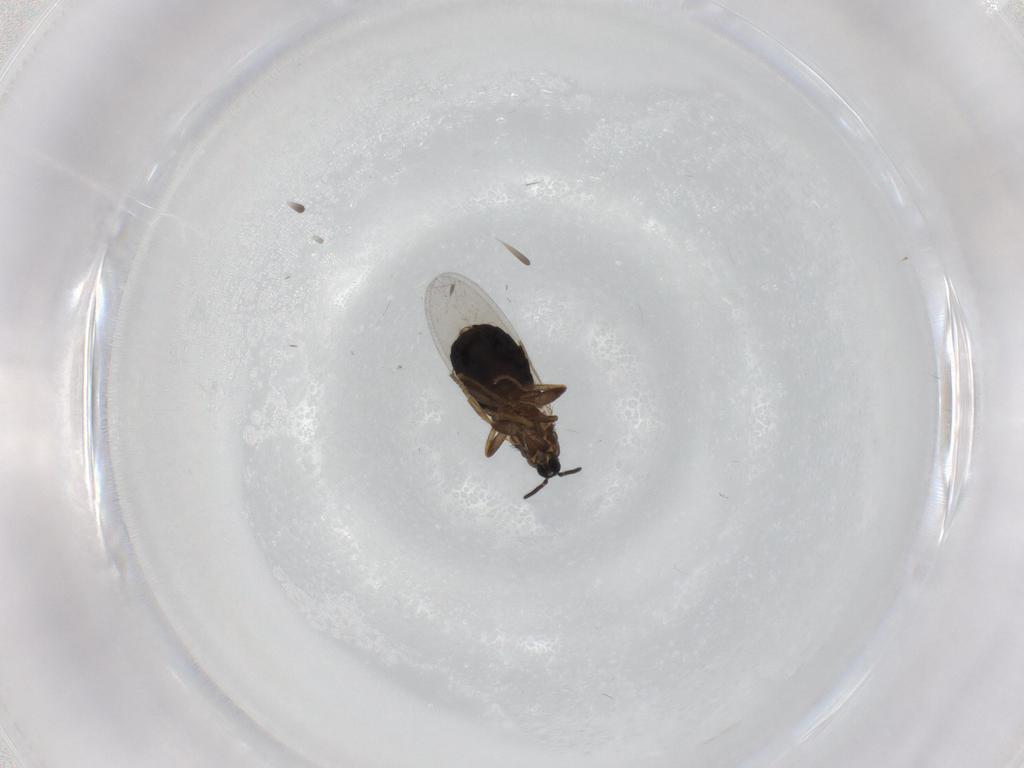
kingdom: Animalia
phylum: Arthropoda
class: Insecta
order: Diptera
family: Scatopsidae
